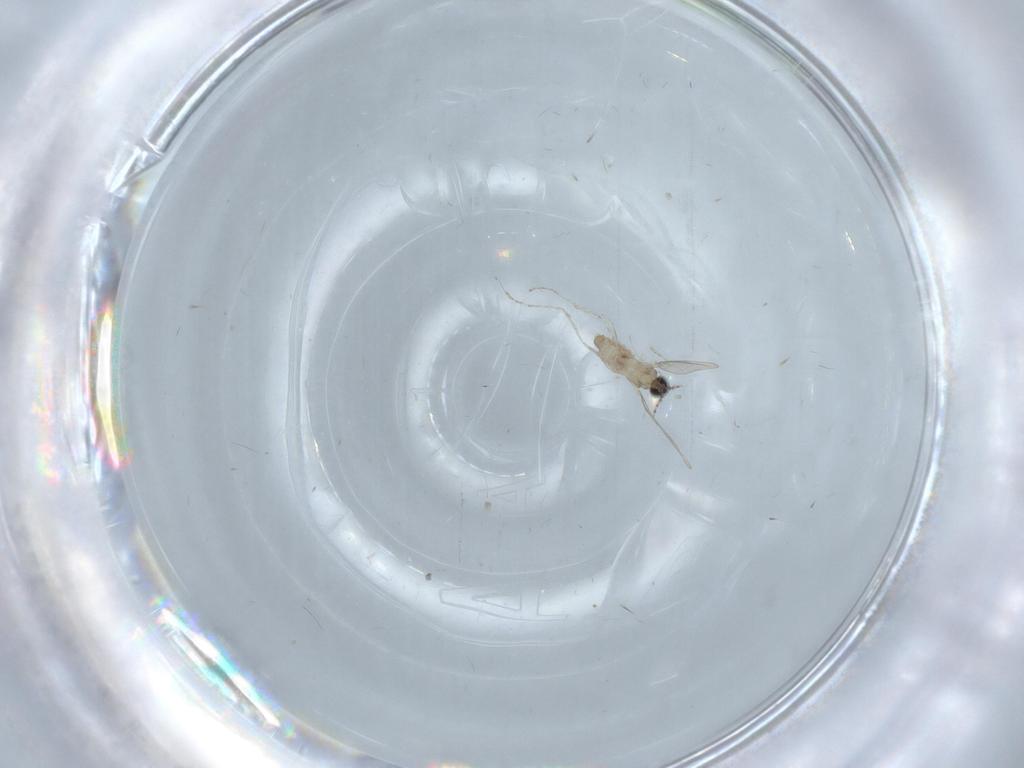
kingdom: Animalia
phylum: Arthropoda
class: Insecta
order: Diptera
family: Cecidomyiidae
